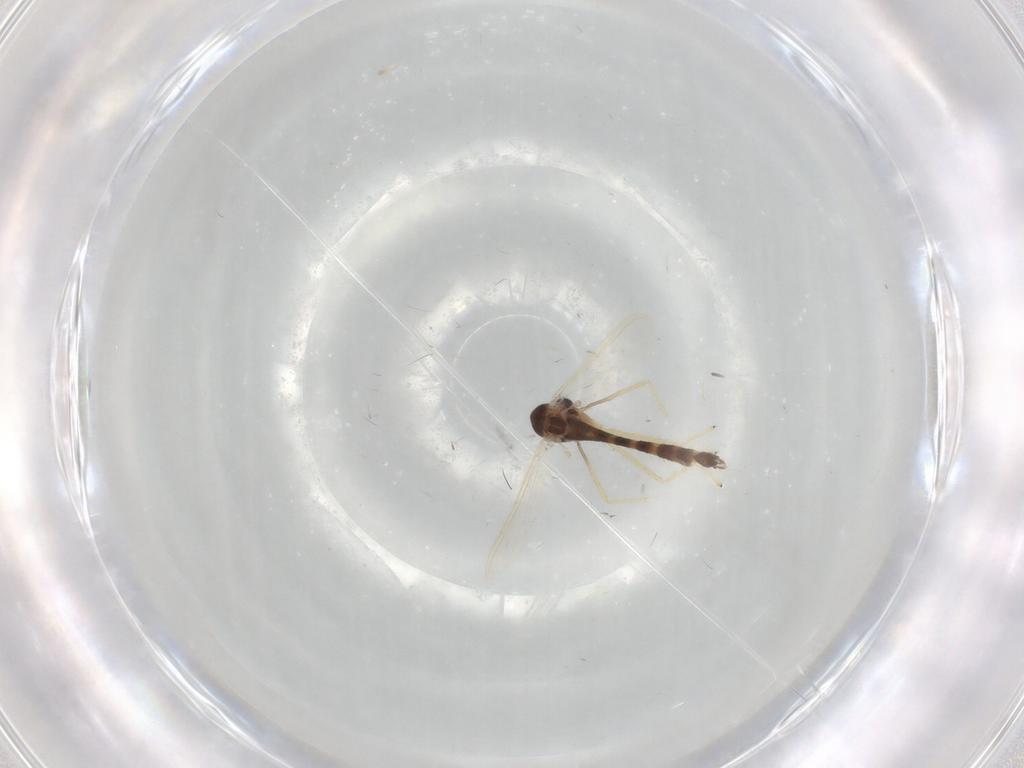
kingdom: Animalia
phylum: Arthropoda
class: Insecta
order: Diptera
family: Chironomidae
